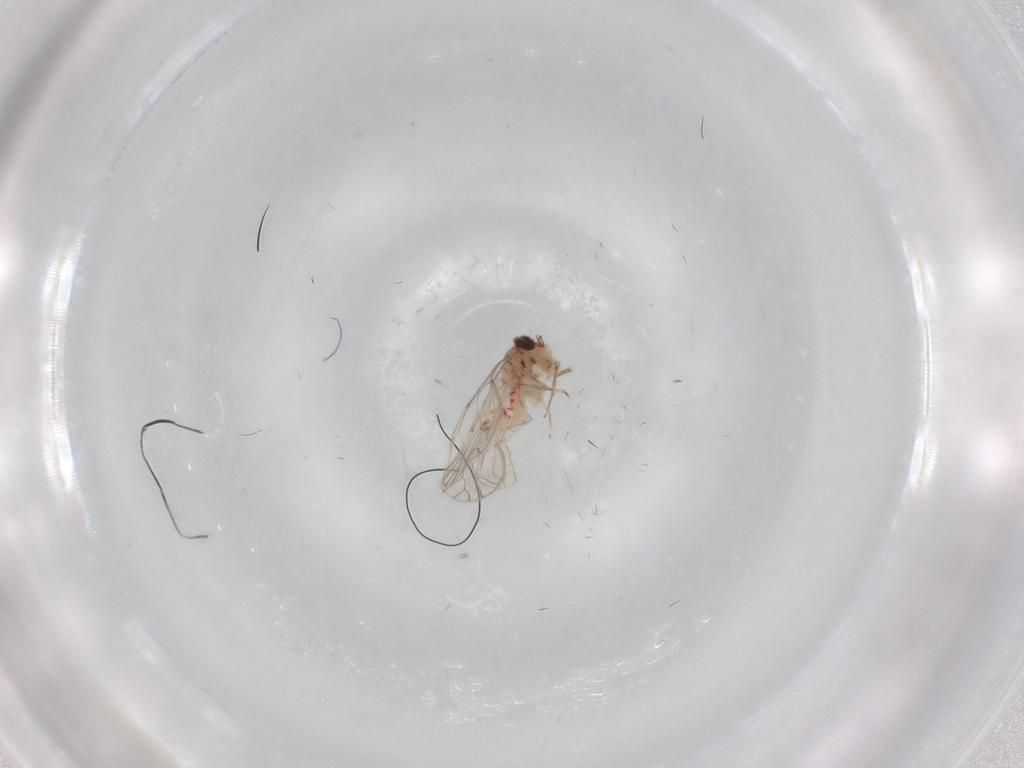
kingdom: Animalia
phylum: Arthropoda
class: Insecta
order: Psocodea
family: Caeciliusidae
